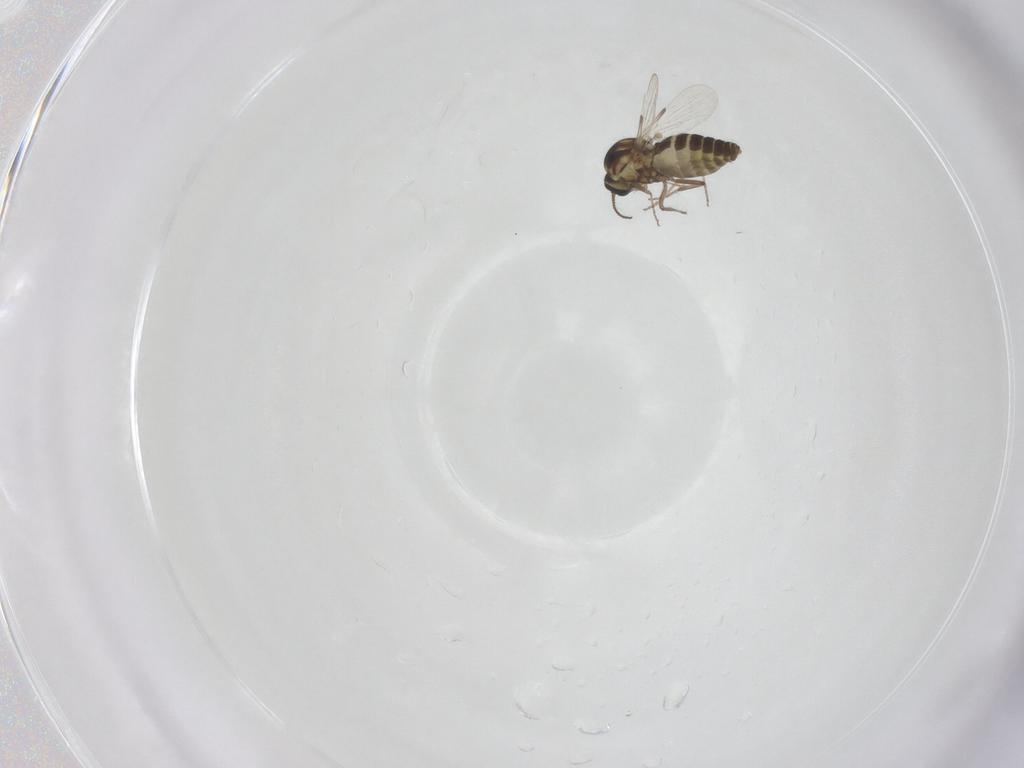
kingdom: Animalia
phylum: Arthropoda
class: Insecta
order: Diptera
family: Ceratopogonidae
